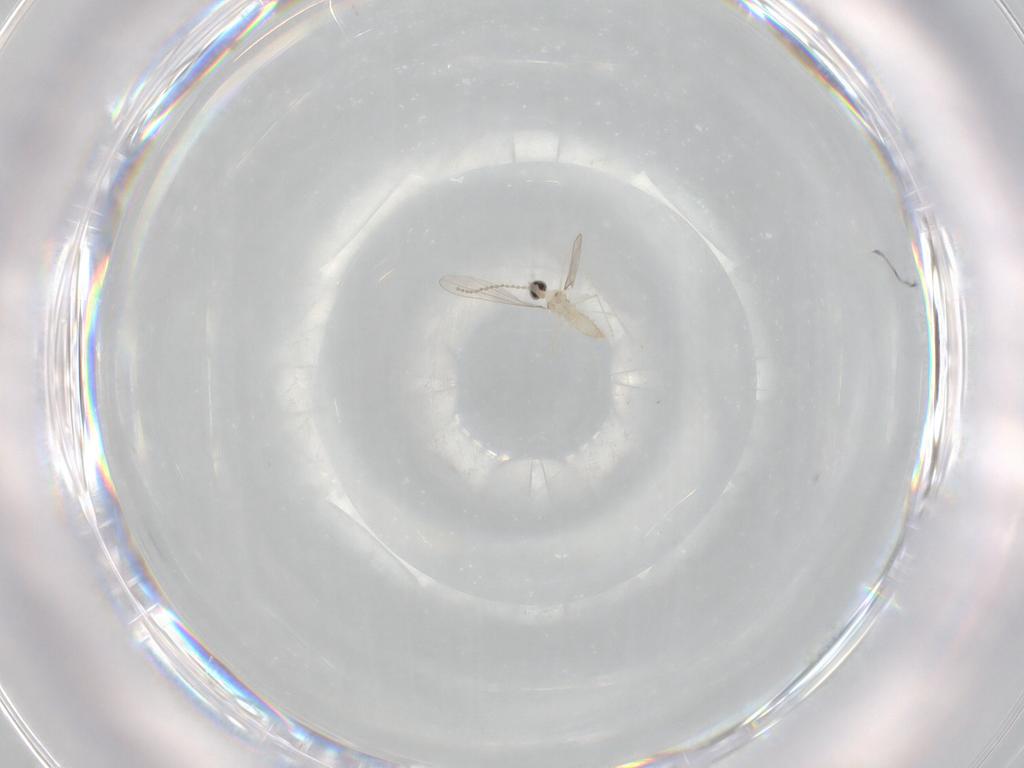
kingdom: Animalia
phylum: Arthropoda
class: Insecta
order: Diptera
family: Cecidomyiidae
